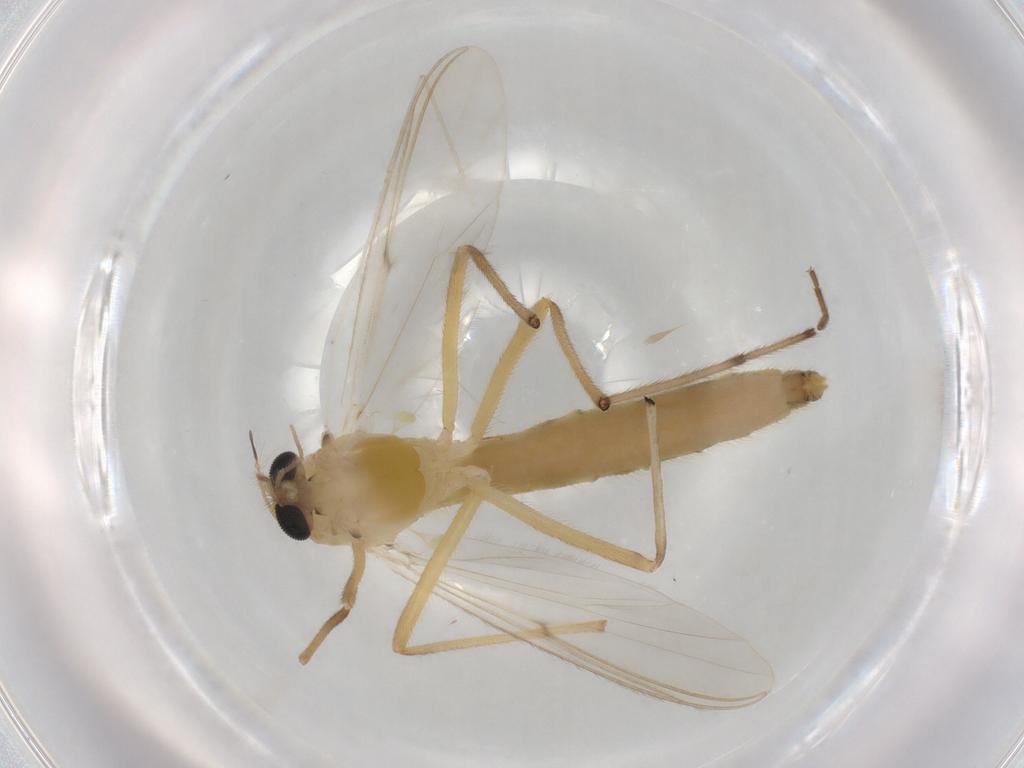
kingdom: Animalia
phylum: Arthropoda
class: Insecta
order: Diptera
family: Chironomidae
